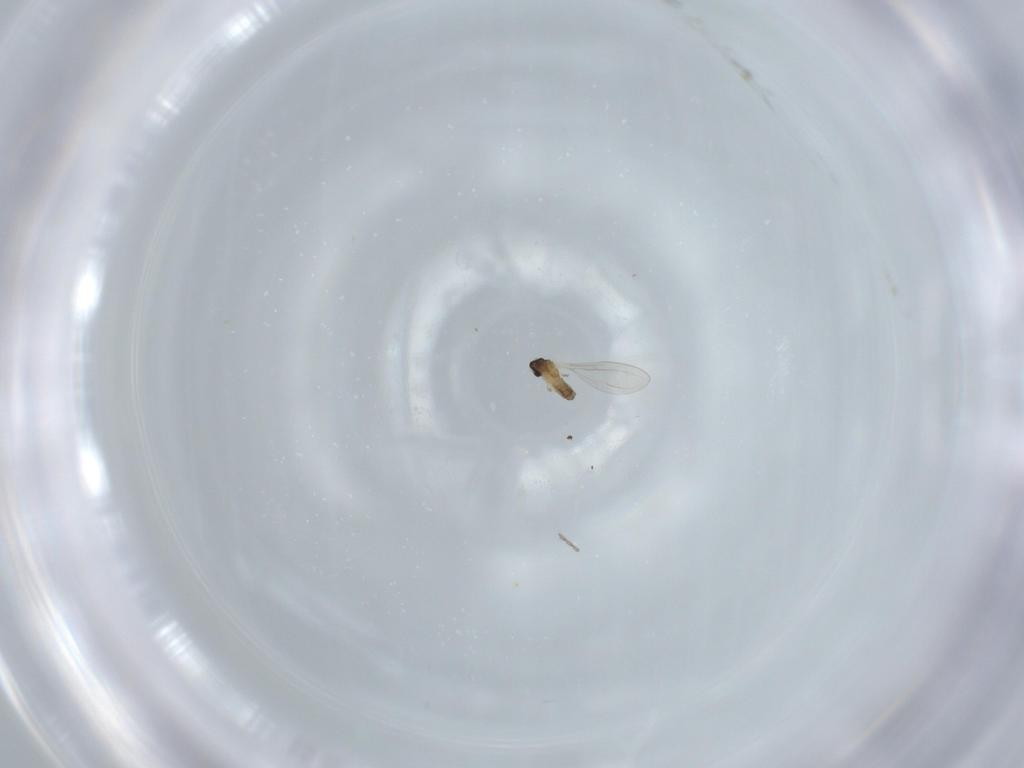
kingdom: Animalia
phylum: Arthropoda
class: Insecta
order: Diptera
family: Cecidomyiidae
